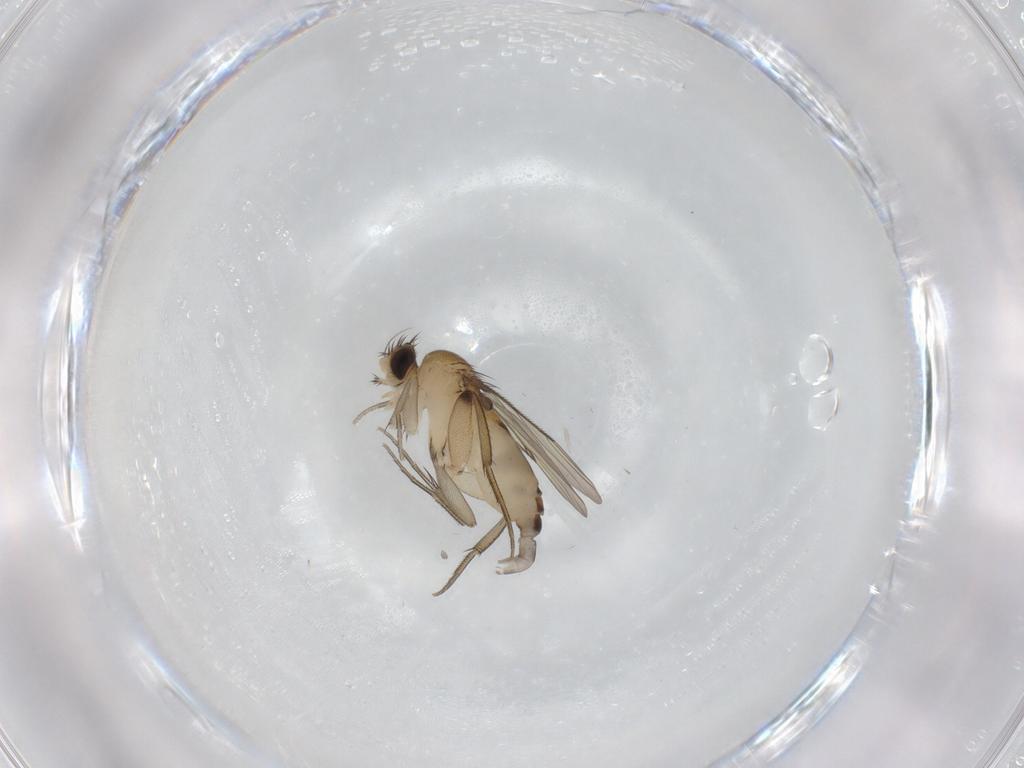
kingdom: Animalia
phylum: Arthropoda
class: Insecta
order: Diptera
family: Phoridae
